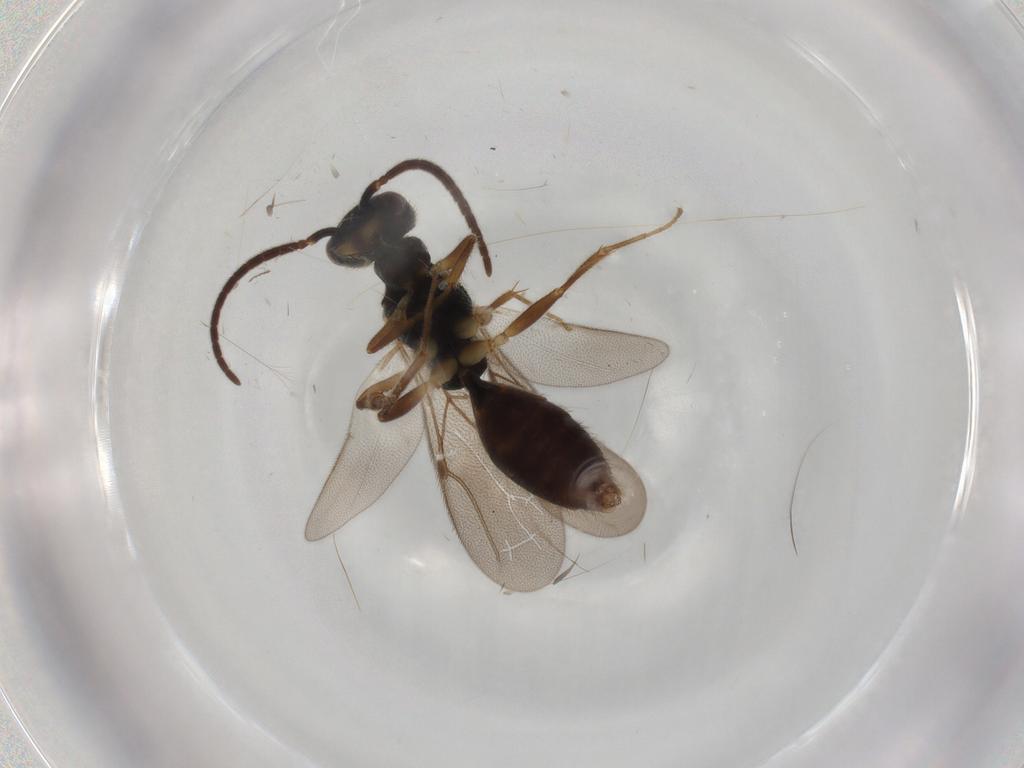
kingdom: Animalia
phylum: Arthropoda
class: Insecta
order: Hymenoptera
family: Bethylidae
